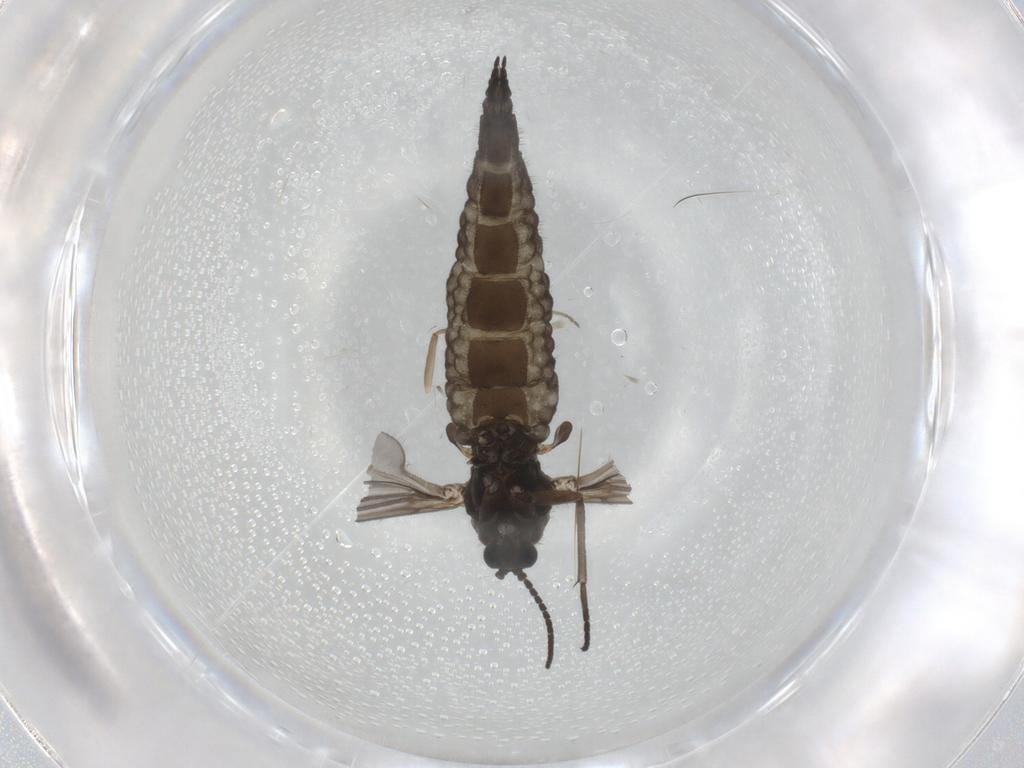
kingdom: Animalia
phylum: Arthropoda
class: Insecta
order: Diptera
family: Sciaridae
